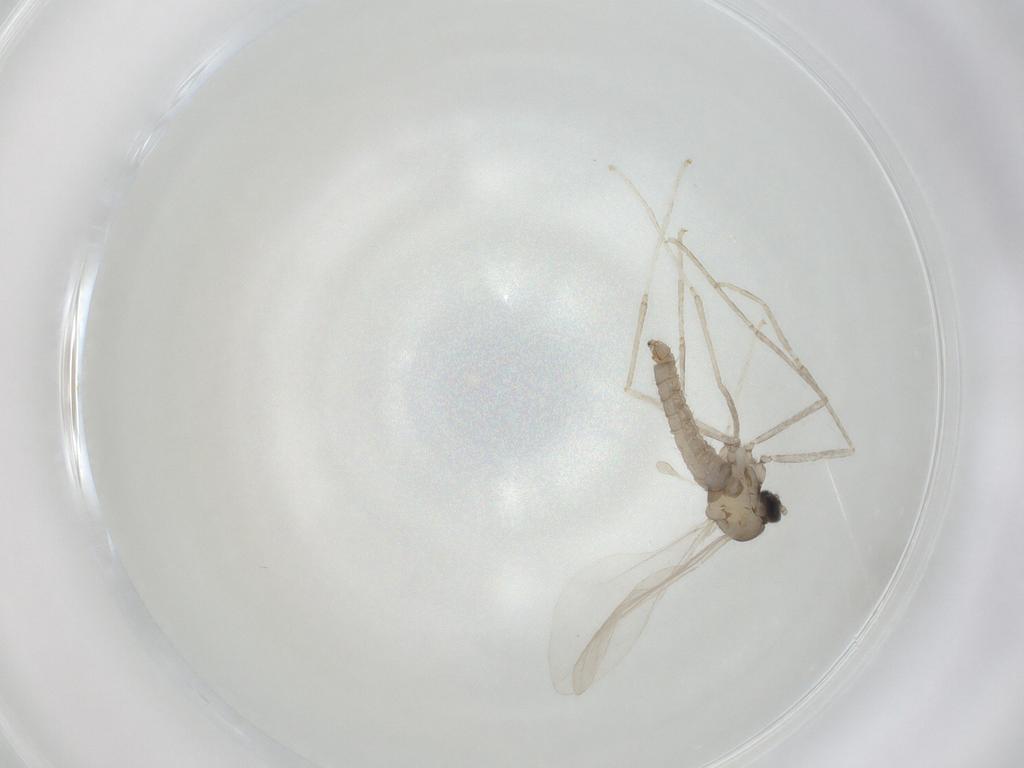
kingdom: Animalia
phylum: Arthropoda
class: Insecta
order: Diptera
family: Cecidomyiidae
